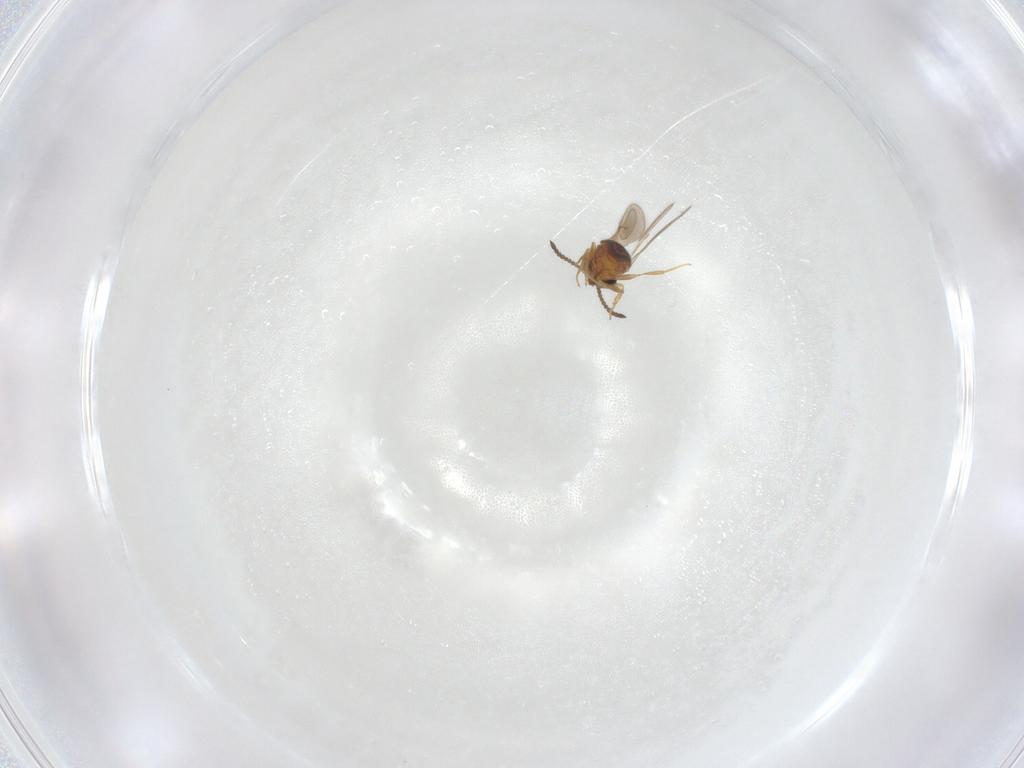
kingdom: Animalia
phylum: Arthropoda
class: Insecta
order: Hymenoptera
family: Scelionidae
